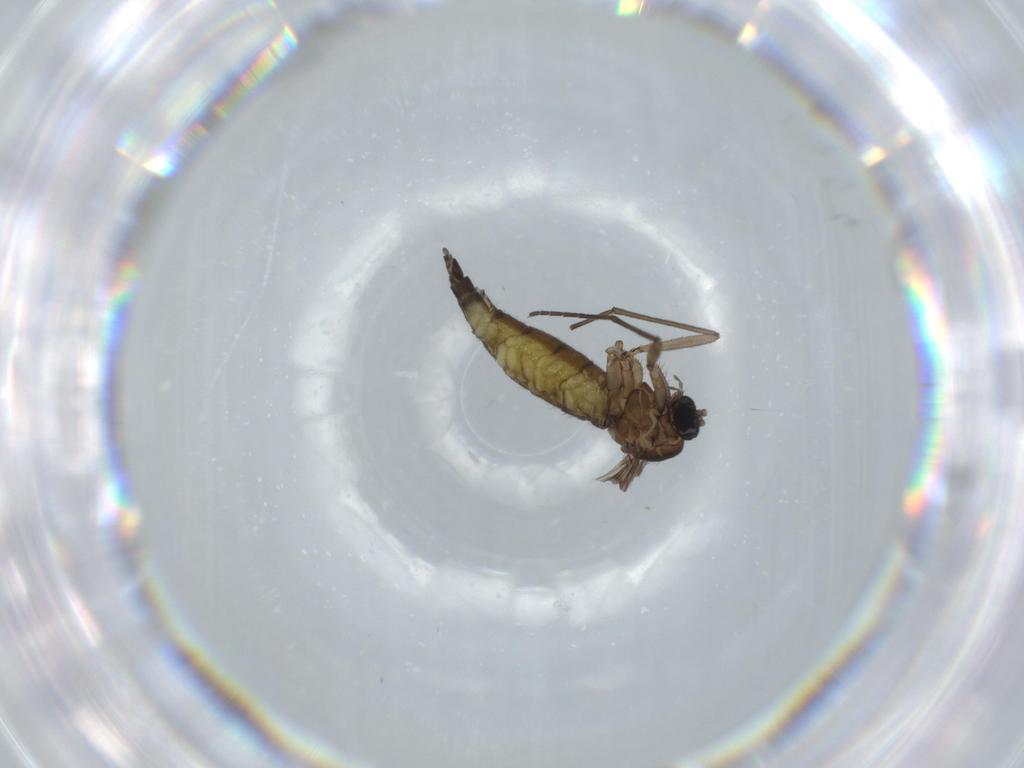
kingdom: Animalia
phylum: Arthropoda
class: Insecta
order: Diptera
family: Sciaridae
